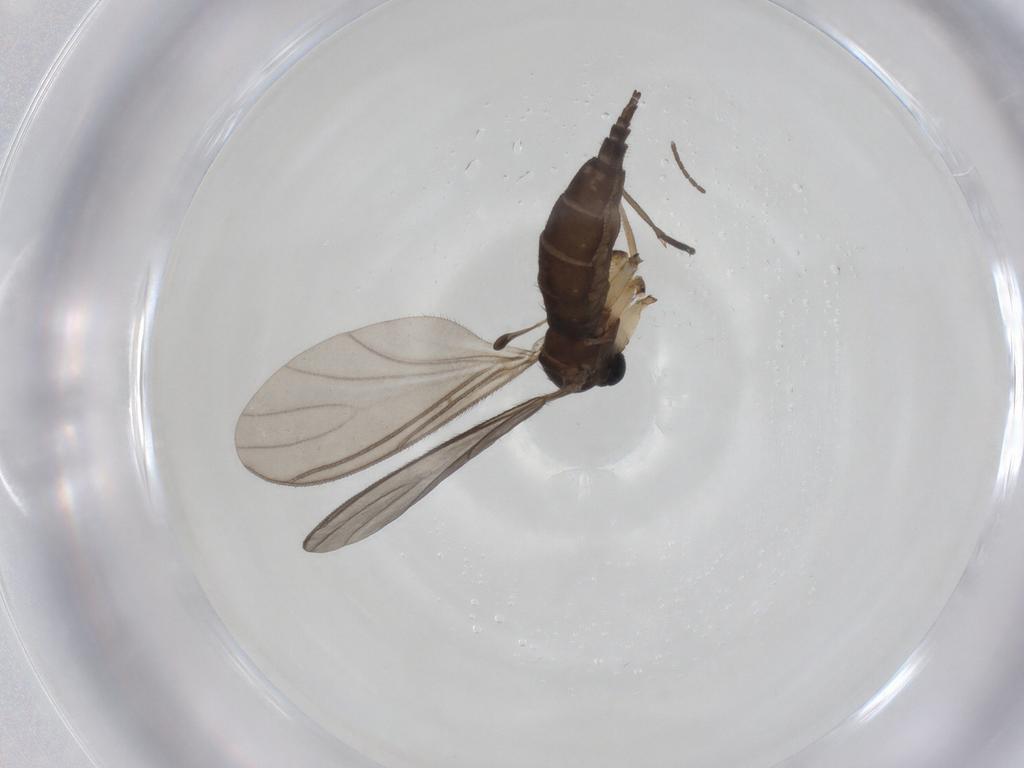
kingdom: Animalia
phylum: Arthropoda
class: Insecta
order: Diptera
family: Sciaridae
